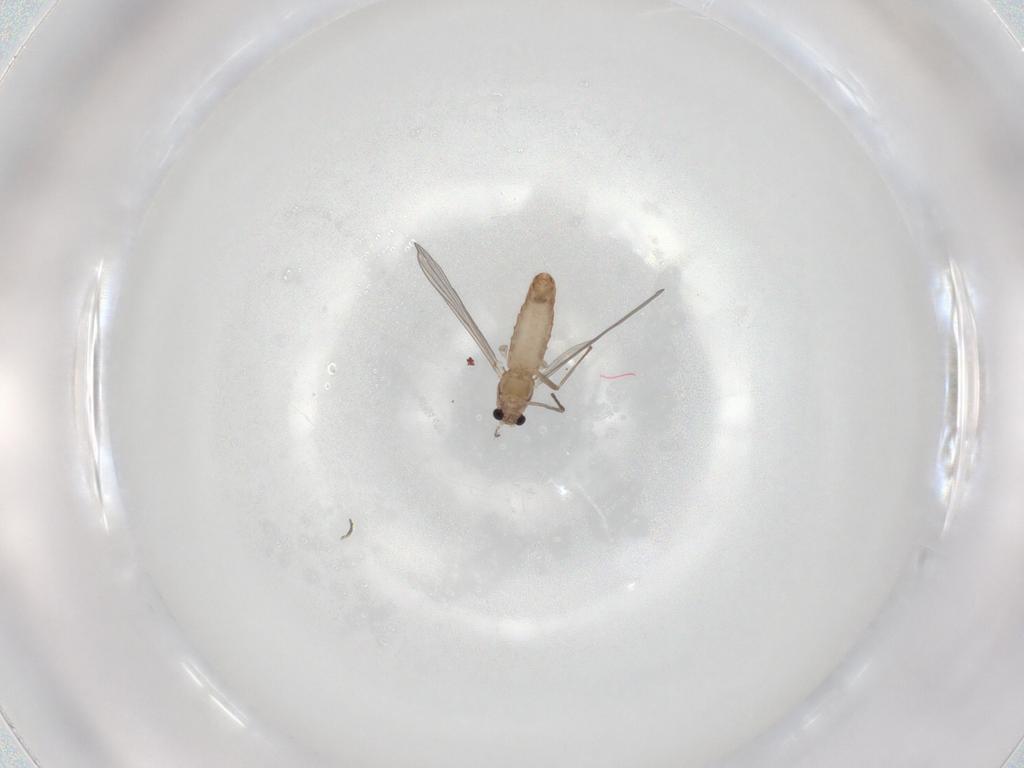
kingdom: Animalia
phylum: Arthropoda
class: Insecta
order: Diptera
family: Chironomidae
